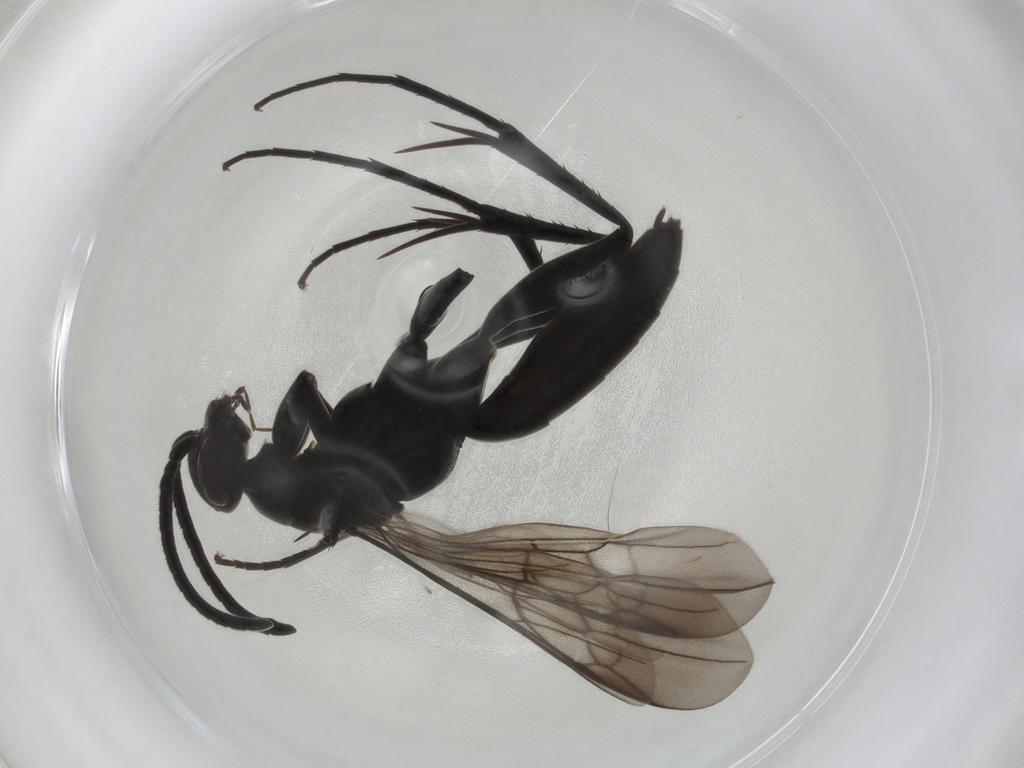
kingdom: Animalia
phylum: Arthropoda
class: Insecta
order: Hymenoptera
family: Pompilidae
